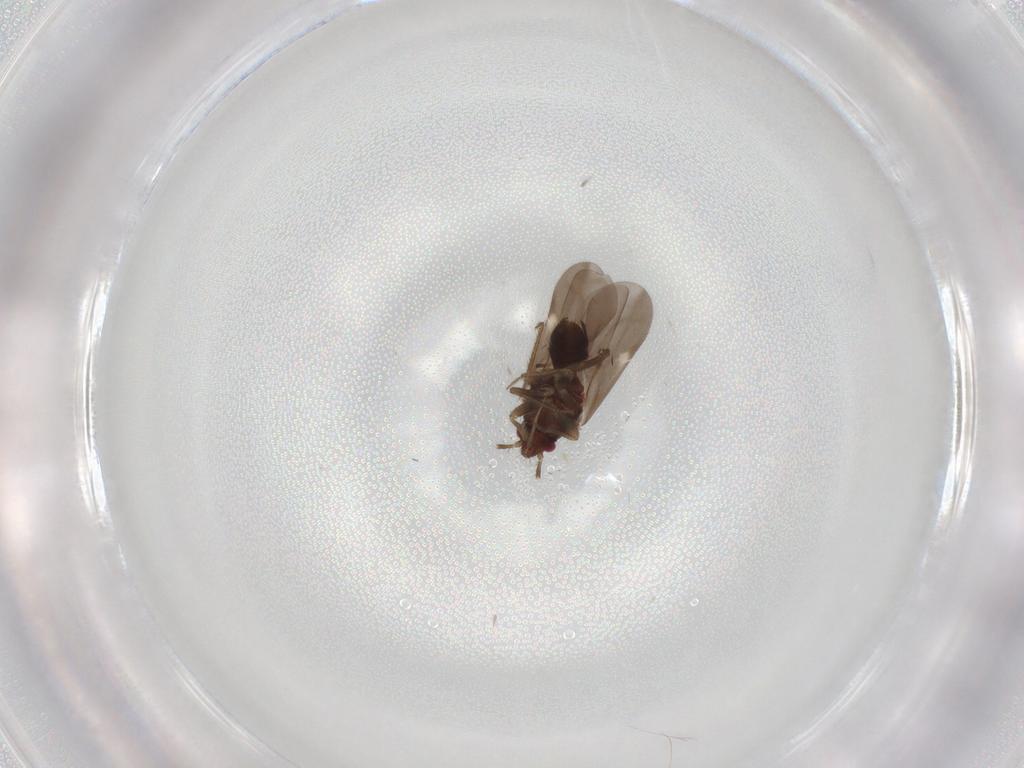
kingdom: Animalia
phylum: Arthropoda
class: Insecta
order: Hemiptera
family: Ceratocombidae
